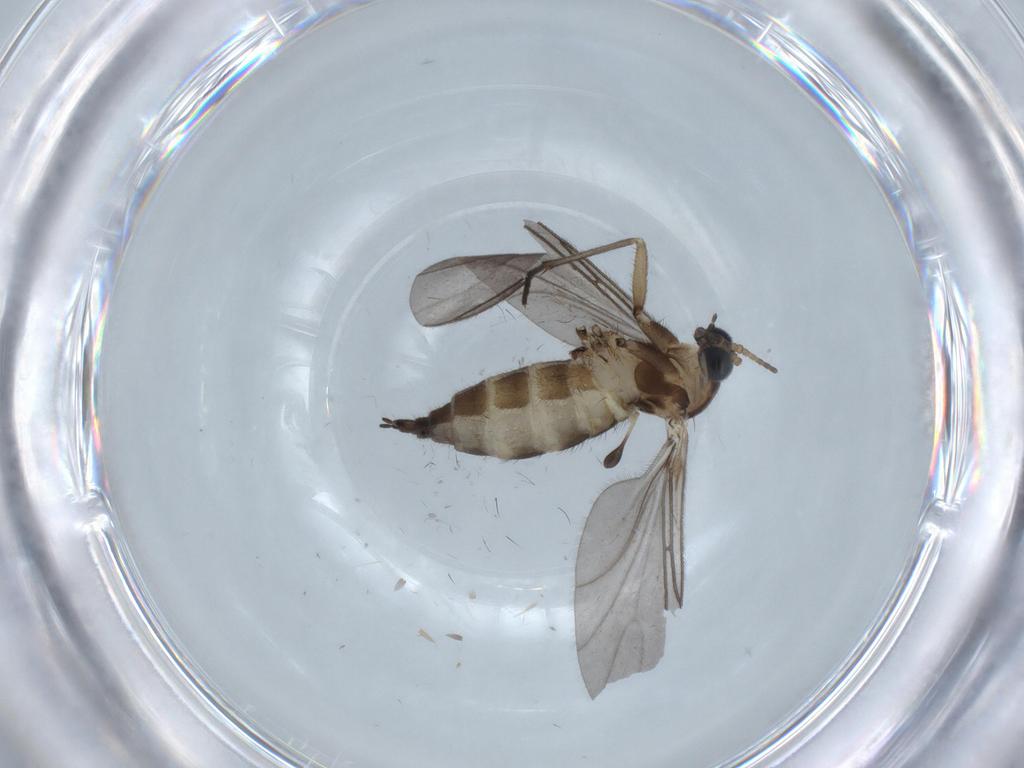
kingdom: Animalia
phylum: Arthropoda
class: Insecta
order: Diptera
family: Sciaridae
